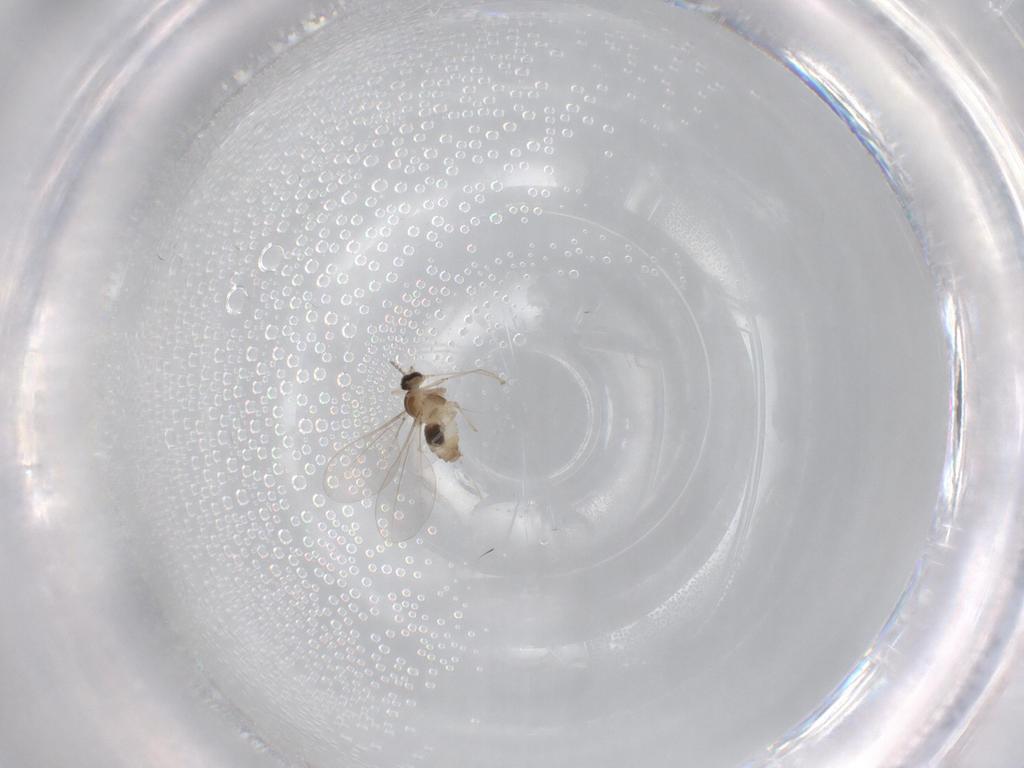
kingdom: Animalia
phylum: Arthropoda
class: Insecta
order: Diptera
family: Cecidomyiidae
